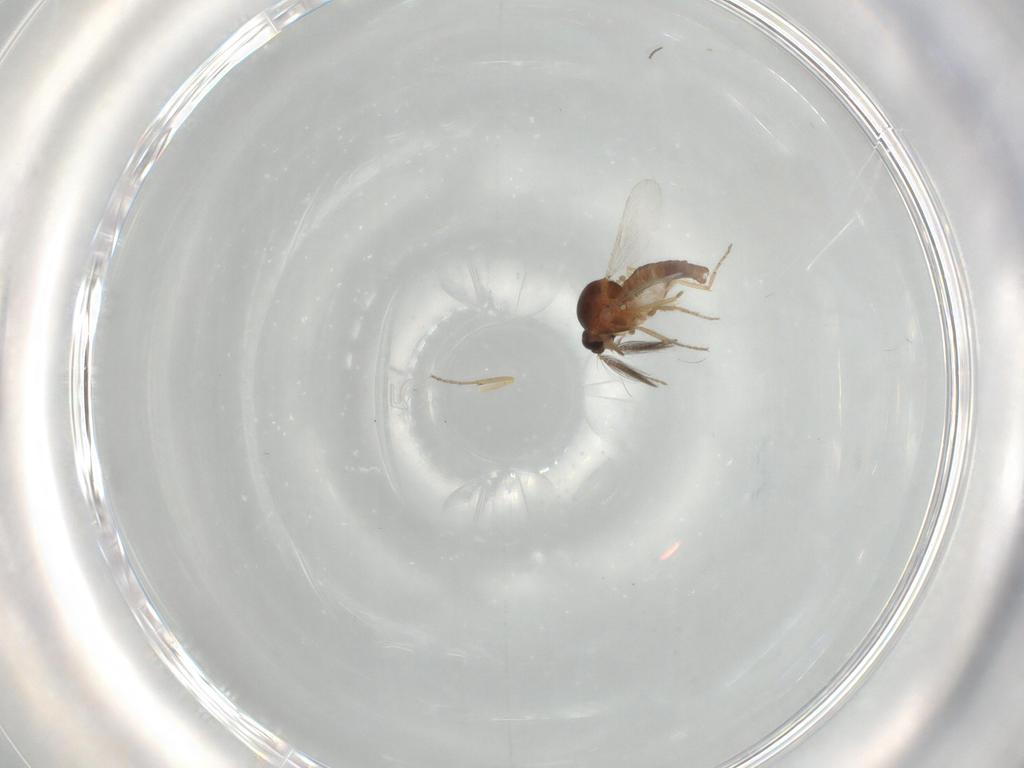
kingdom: Animalia
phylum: Arthropoda
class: Insecta
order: Diptera
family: Ceratopogonidae
